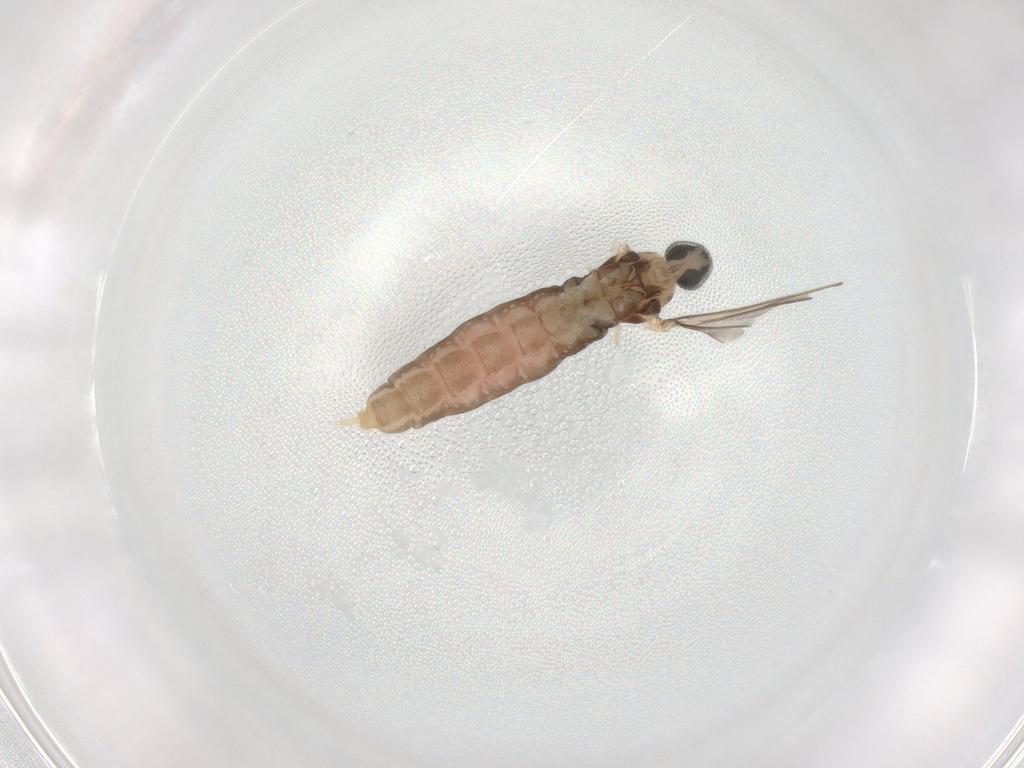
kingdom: Animalia
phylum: Arthropoda
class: Insecta
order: Diptera
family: Cecidomyiidae
